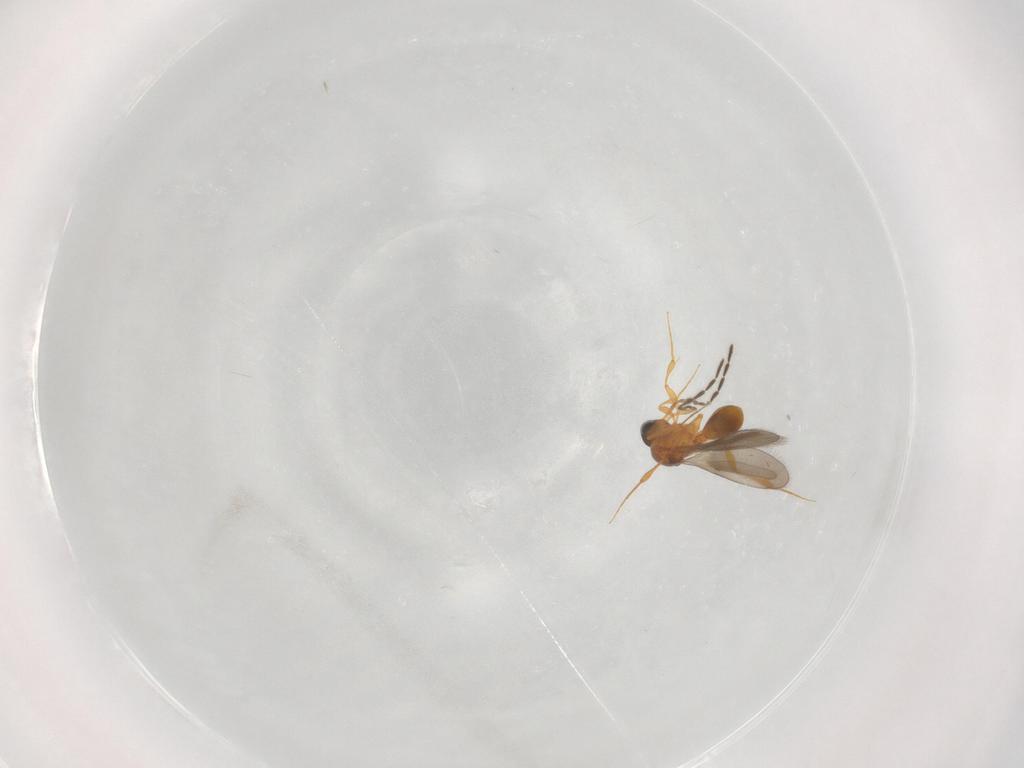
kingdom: Animalia
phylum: Arthropoda
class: Insecta
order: Hymenoptera
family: Platygastridae
